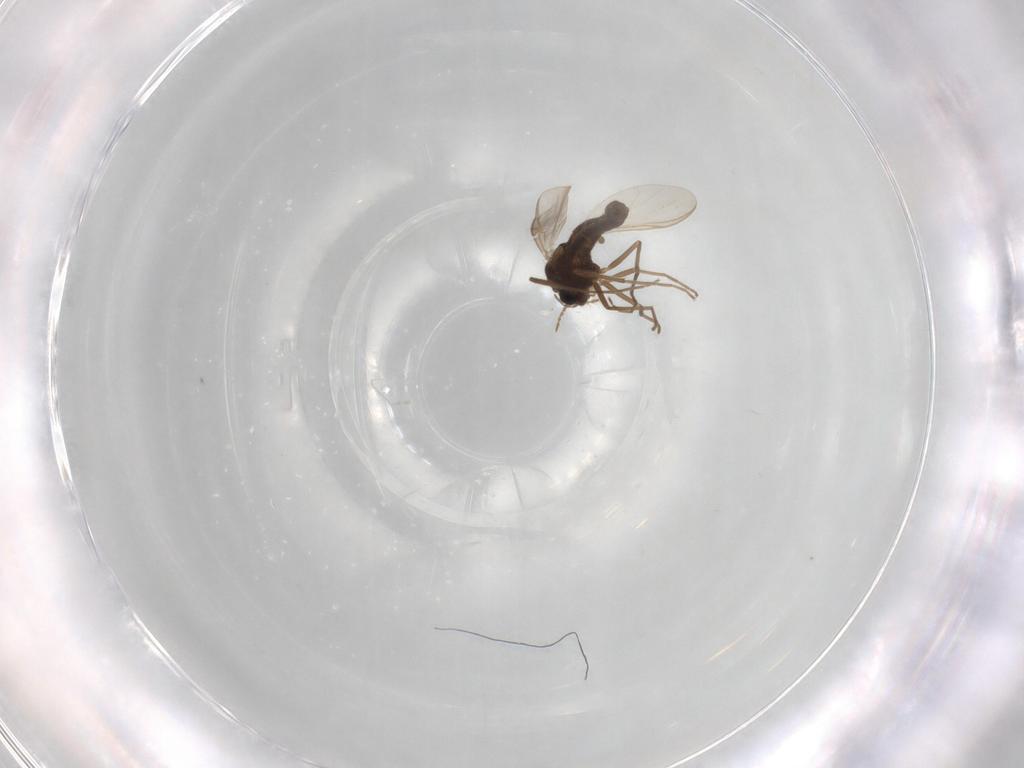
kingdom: Animalia
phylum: Arthropoda
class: Insecta
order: Diptera
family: Chironomidae
